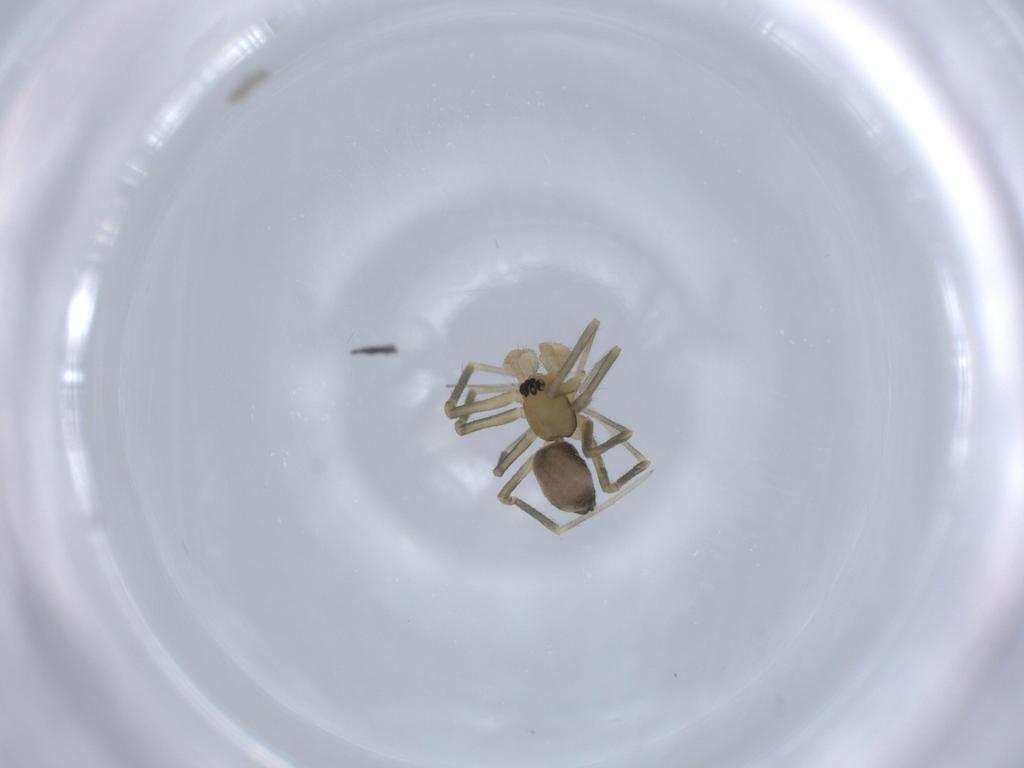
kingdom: Animalia
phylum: Arthropoda
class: Arachnida
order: Araneae
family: Linyphiidae
